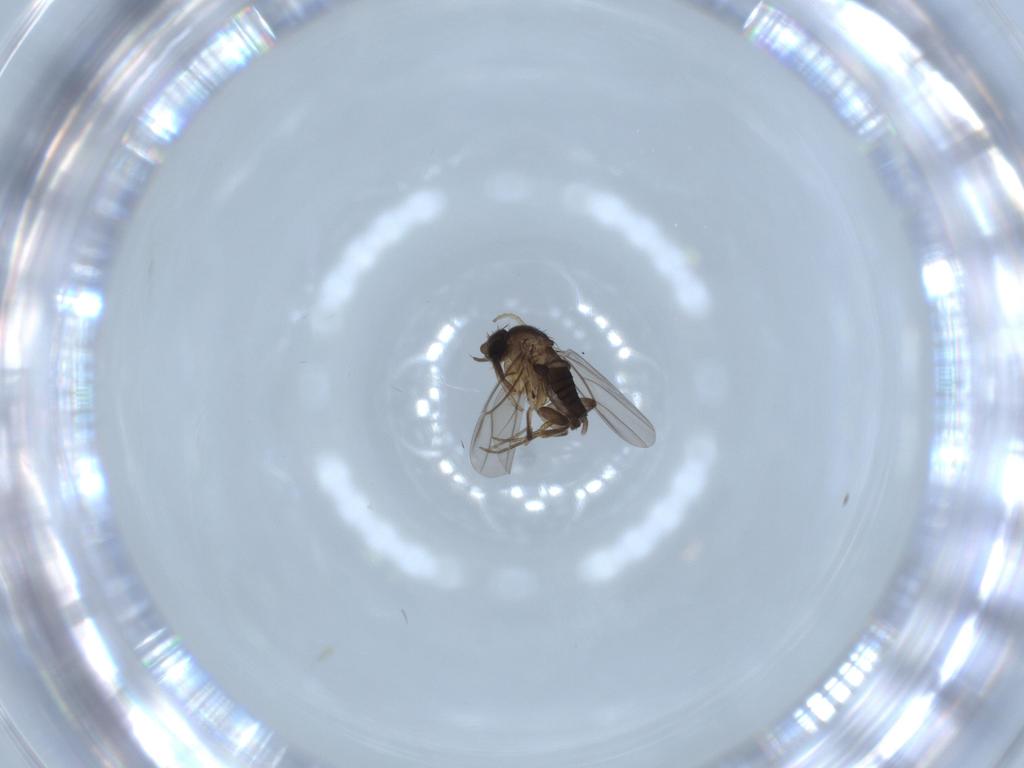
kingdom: Animalia
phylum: Arthropoda
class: Insecta
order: Diptera
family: Phoridae
